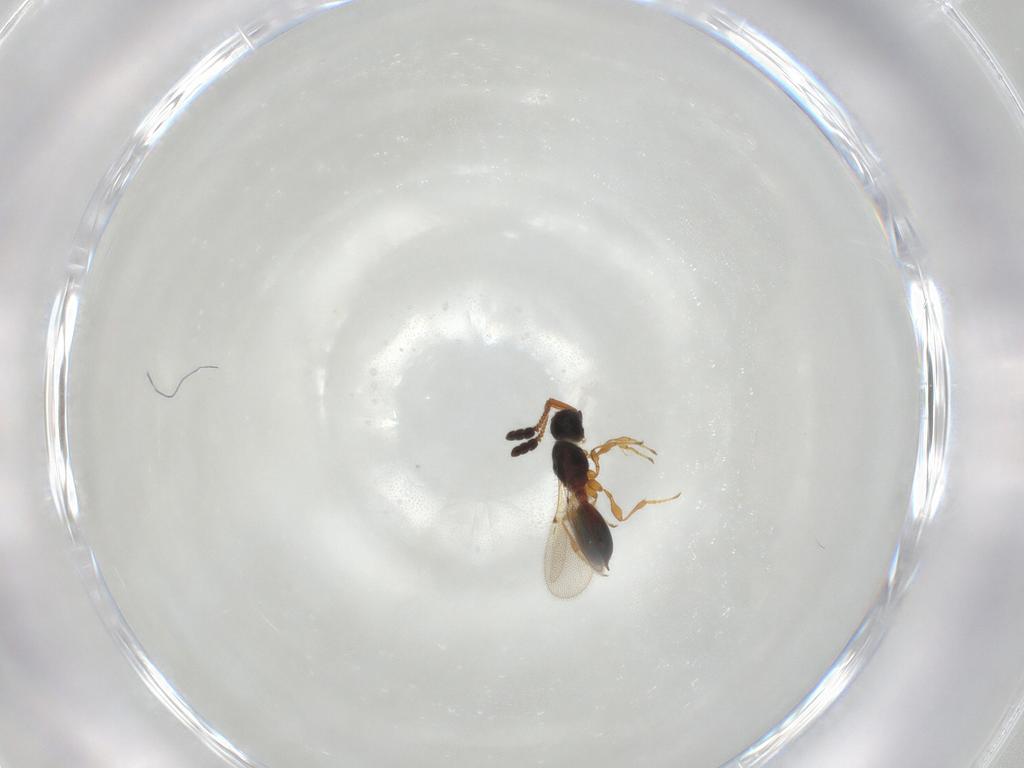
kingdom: Animalia
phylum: Arthropoda
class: Insecta
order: Hymenoptera
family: Diapriidae
